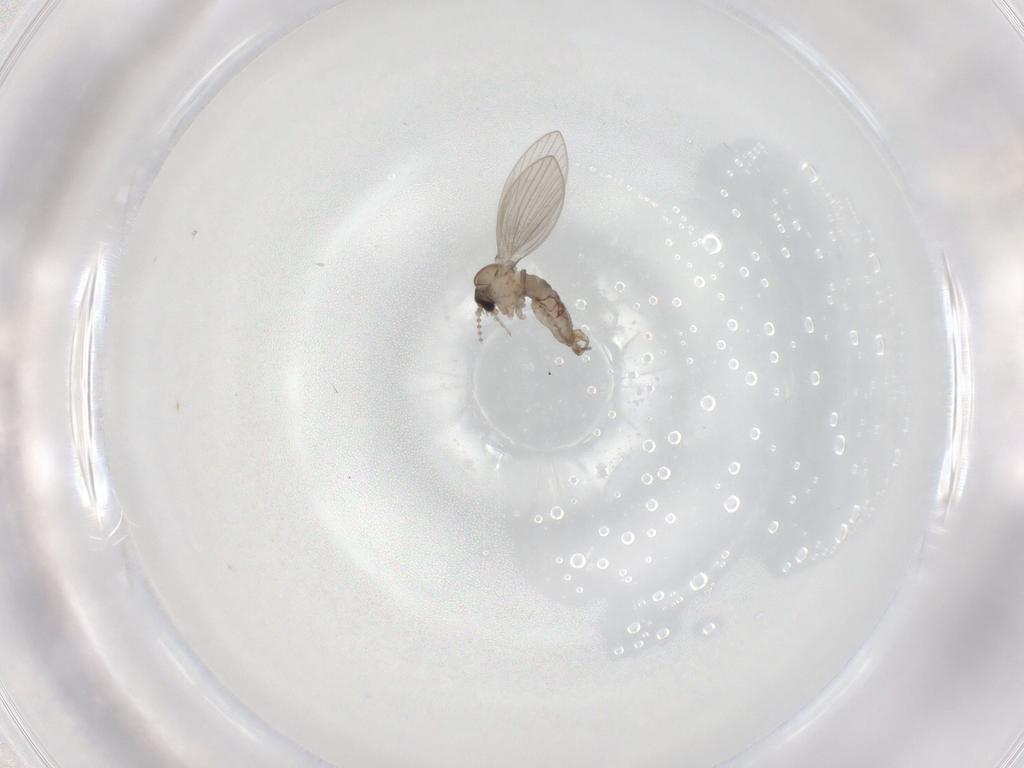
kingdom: Animalia
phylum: Arthropoda
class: Insecta
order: Diptera
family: Psychodidae
